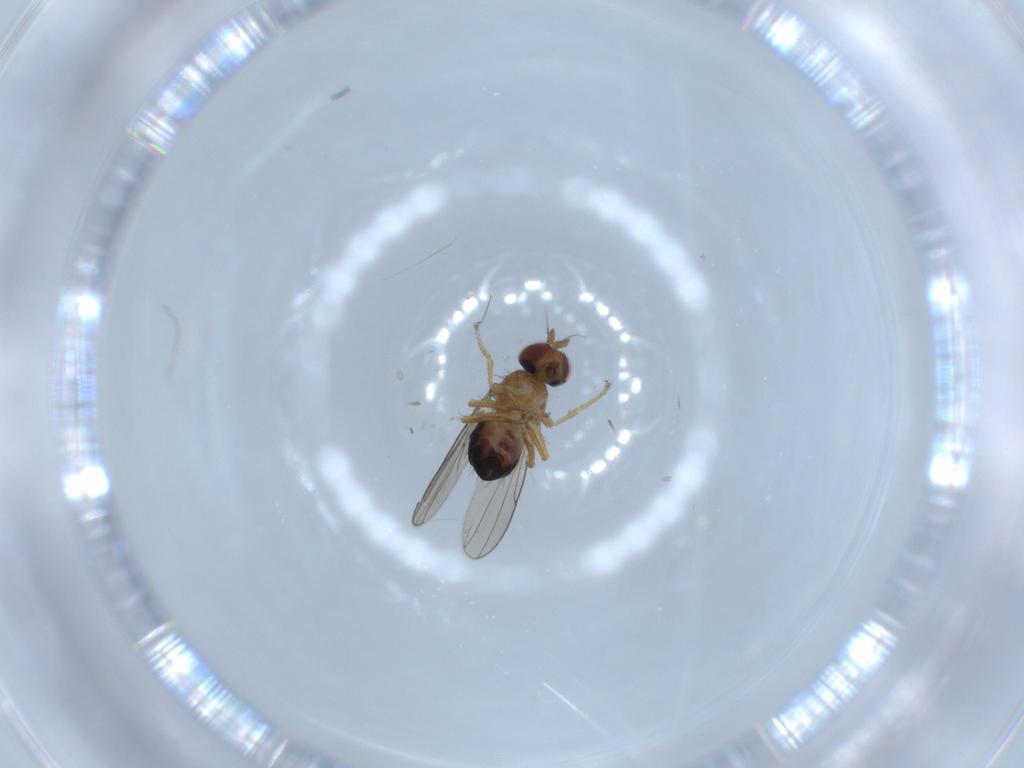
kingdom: Animalia
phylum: Arthropoda
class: Insecta
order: Diptera
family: Ephydridae
